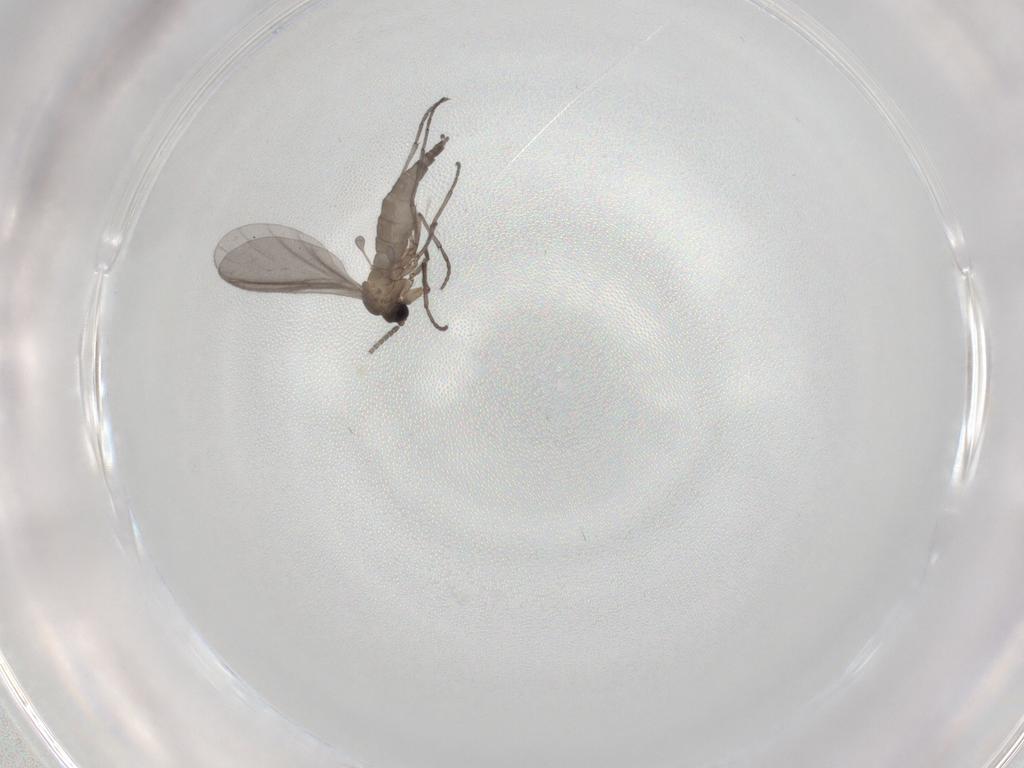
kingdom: Animalia
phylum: Arthropoda
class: Insecta
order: Diptera
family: Sciaridae
